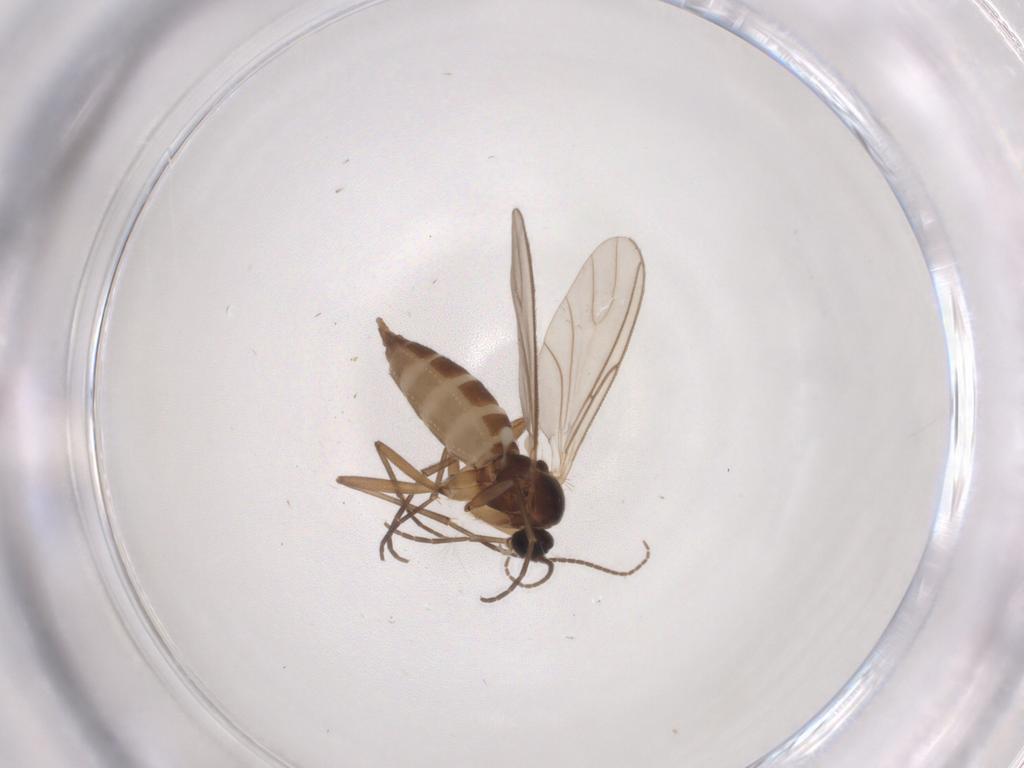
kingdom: Animalia
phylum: Arthropoda
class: Insecta
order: Diptera
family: Sciaridae
